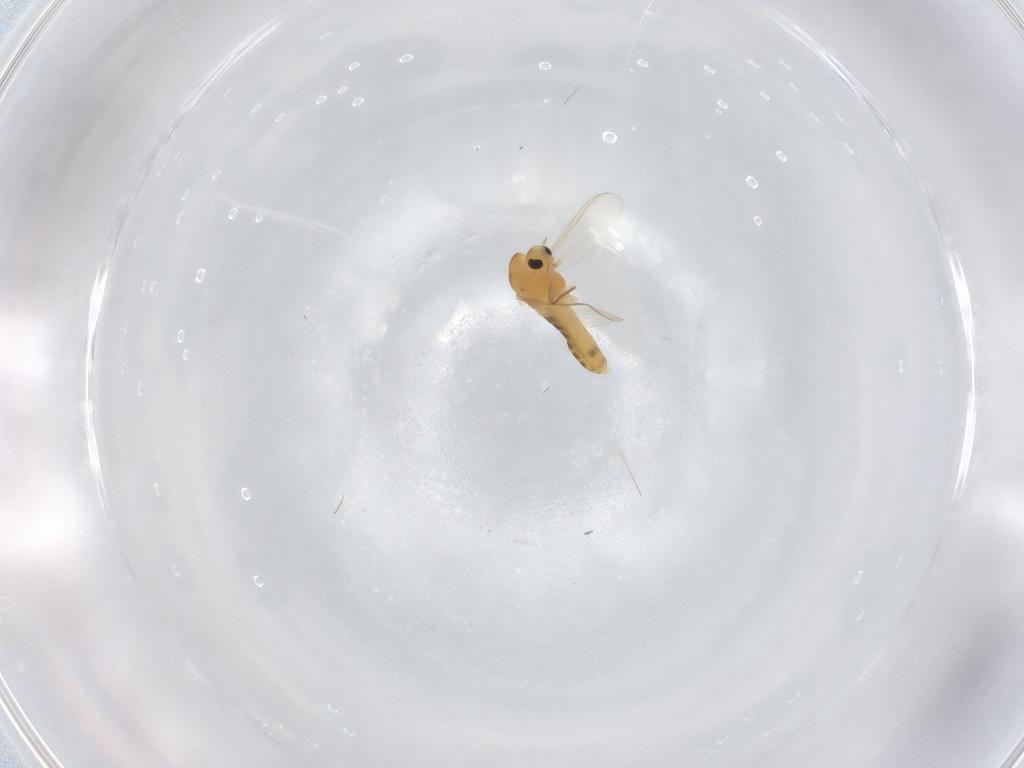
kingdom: Animalia
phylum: Arthropoda
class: Insecta
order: Diptera
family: Chironomidae
